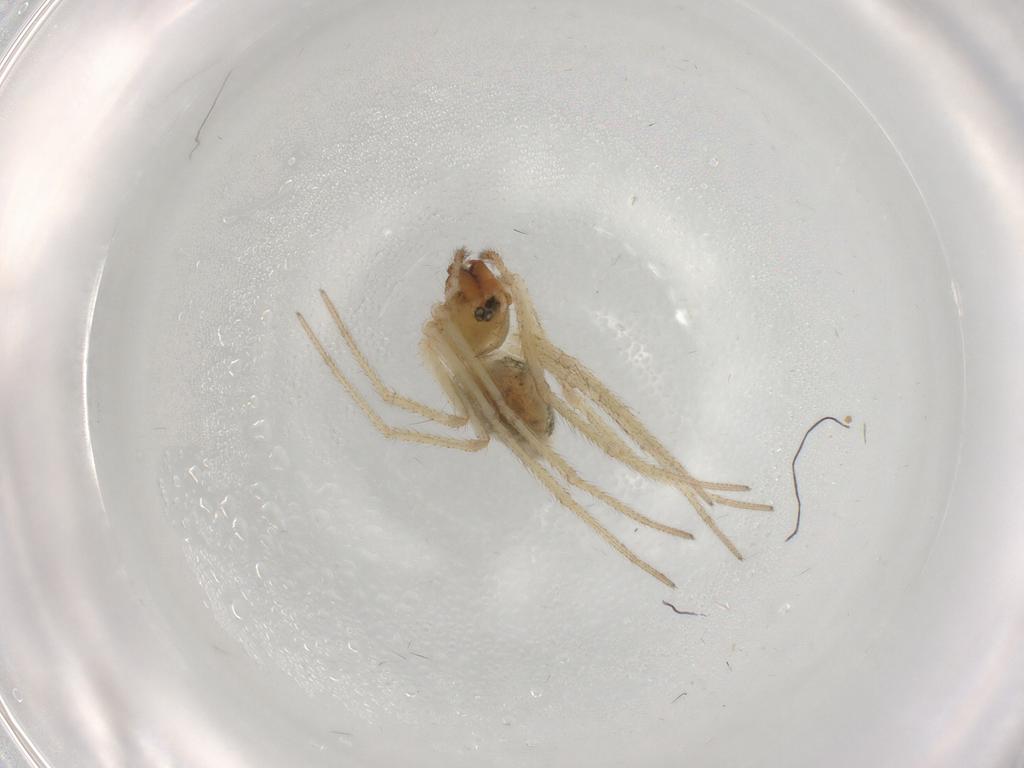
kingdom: Animalia
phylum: Arthropoda
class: Arachnida
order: Araneae
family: Linyphiidae
